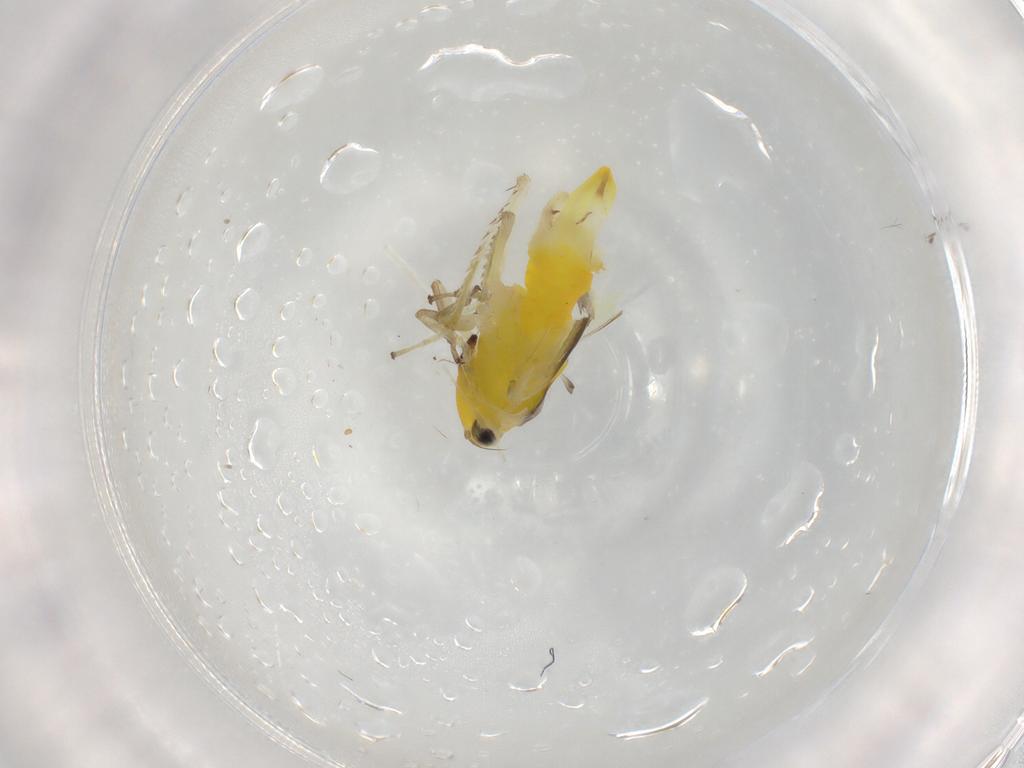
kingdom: Animalia
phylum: Arthropoda
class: Insecta
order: Hemiptera
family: Cicadellidae
